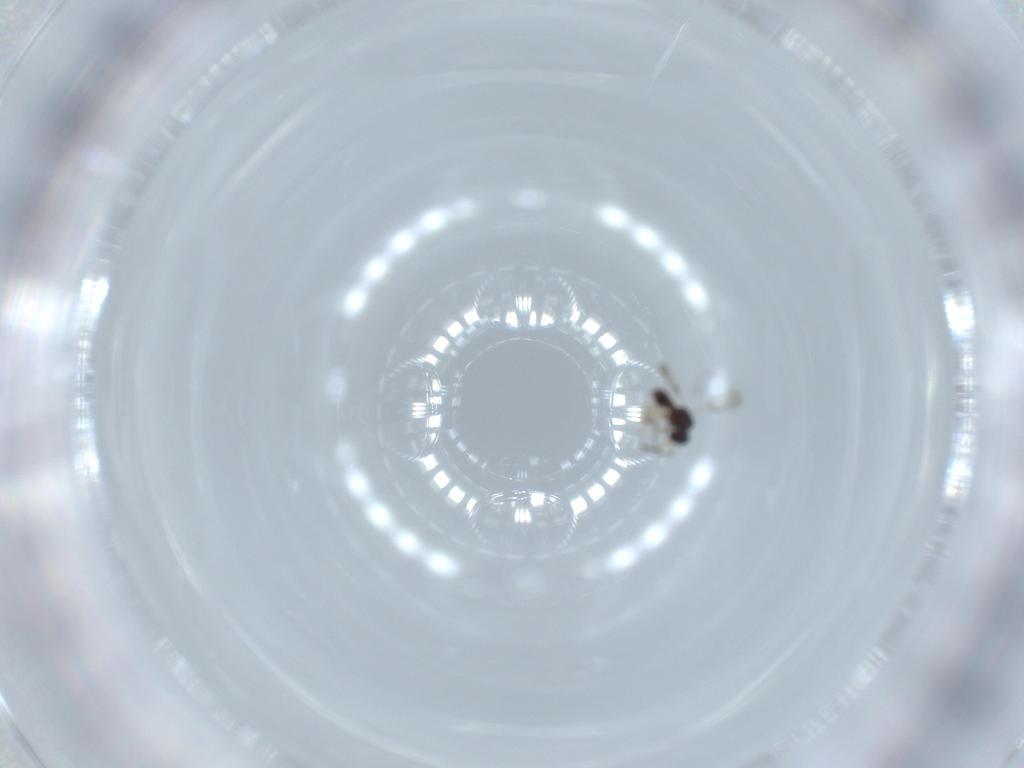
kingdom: Animalia
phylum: Arthropoda
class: Insecta
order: Hymenoptera
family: Ceraphronidae
